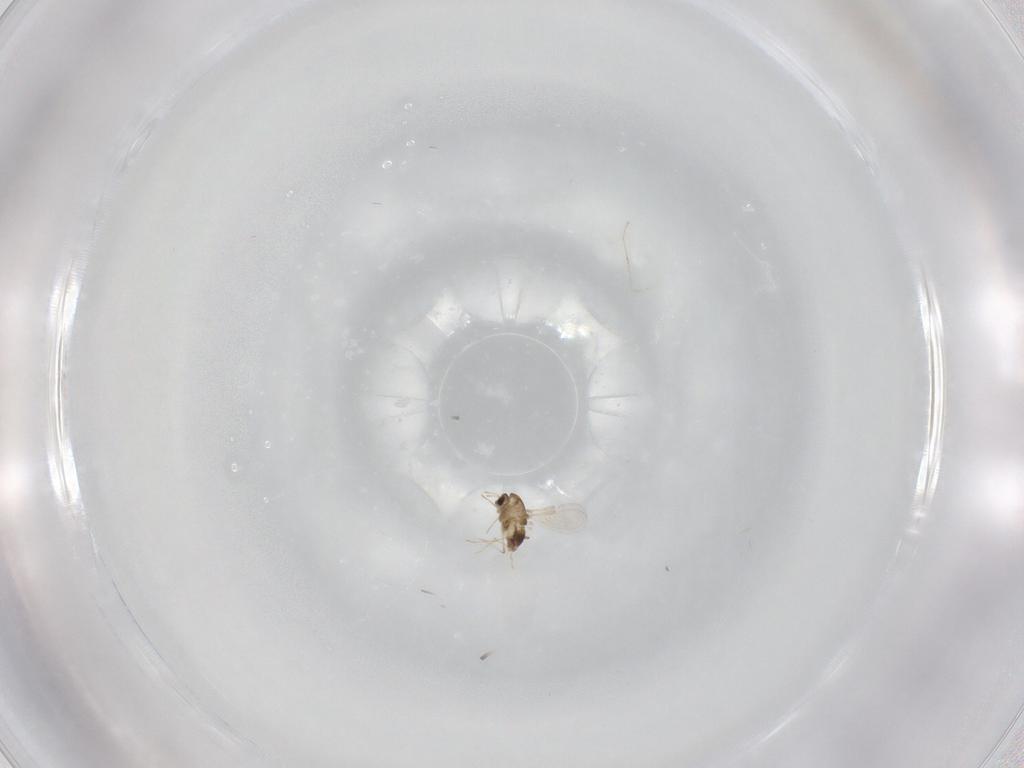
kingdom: Animalia
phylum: Arthropoda
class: Insecta
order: Diptera
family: Chironomidae
